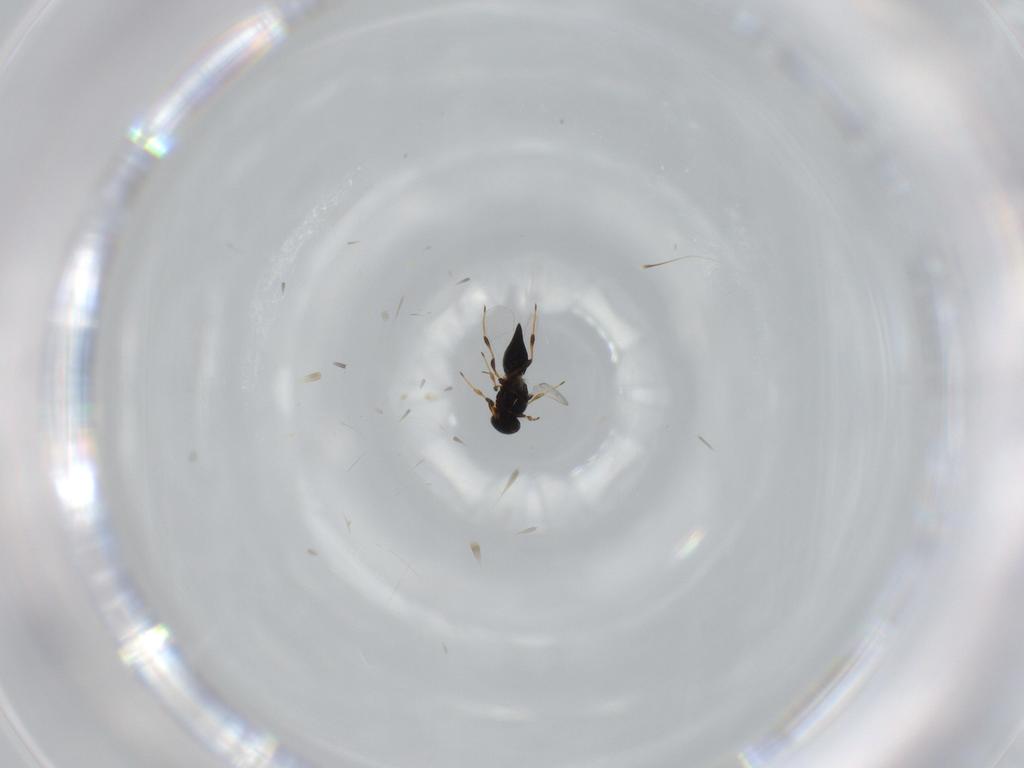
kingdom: Animalia
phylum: Arthropoda
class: Insecta
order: Hymenoptera
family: Platygastridae
